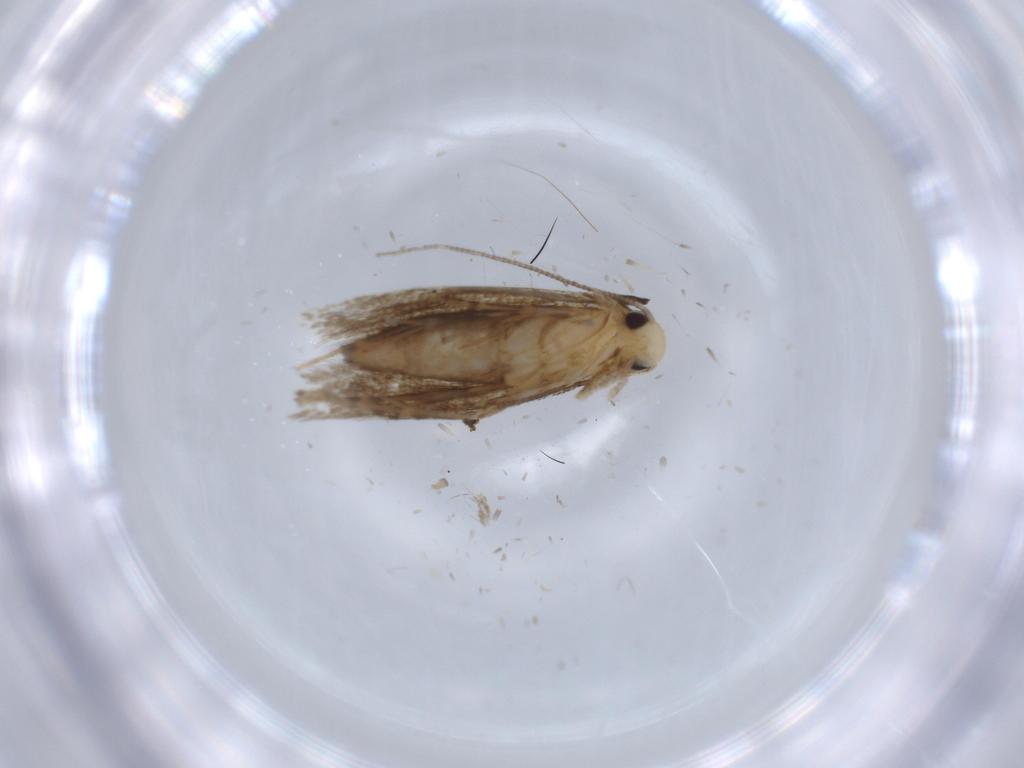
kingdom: Animalia
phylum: Arthropoda
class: Insecta
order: Lepidoptera
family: Tineidae
